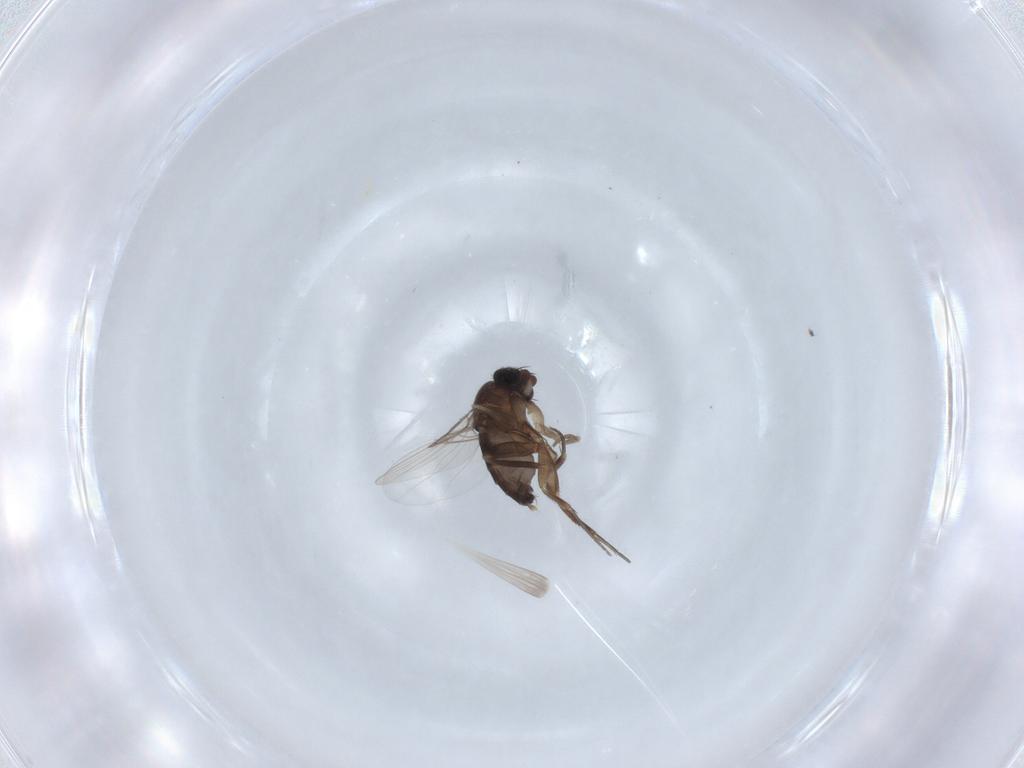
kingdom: Animalia
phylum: Arthropoda
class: Insecta
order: Diptera
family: Phoridae
